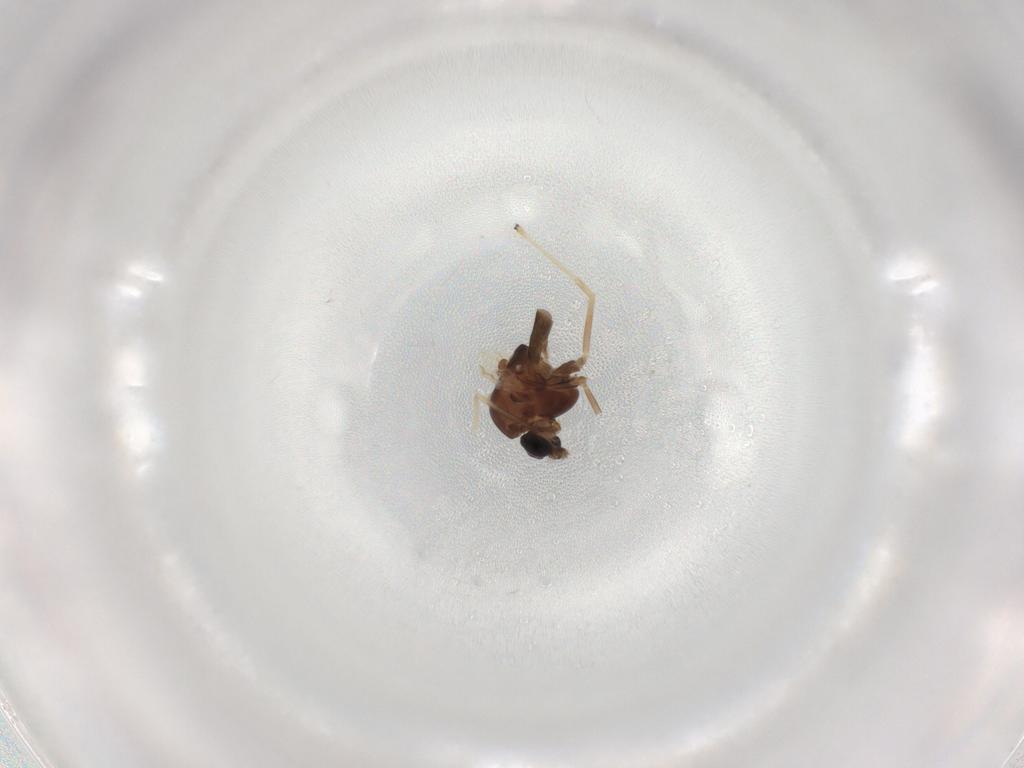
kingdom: Animalia
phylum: Arthropoda
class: Insecta
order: Diptera
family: Chironomidae
